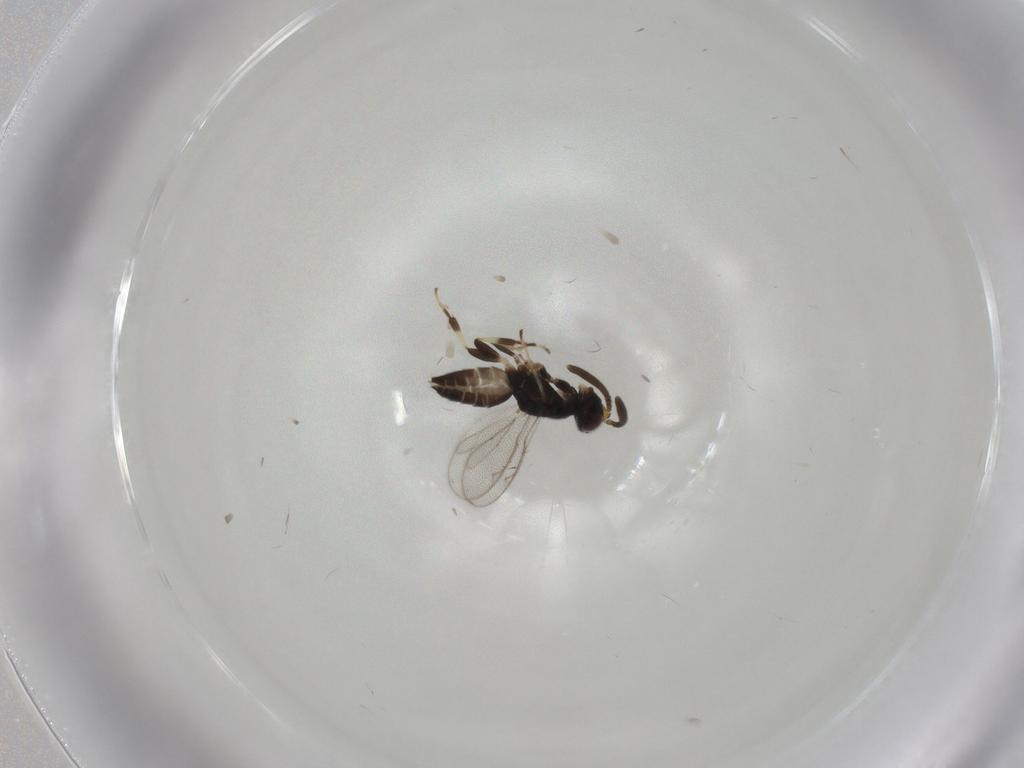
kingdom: Animalia
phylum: Arthropoda
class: Insecta
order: Hymenoptera
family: Eupelmidae
